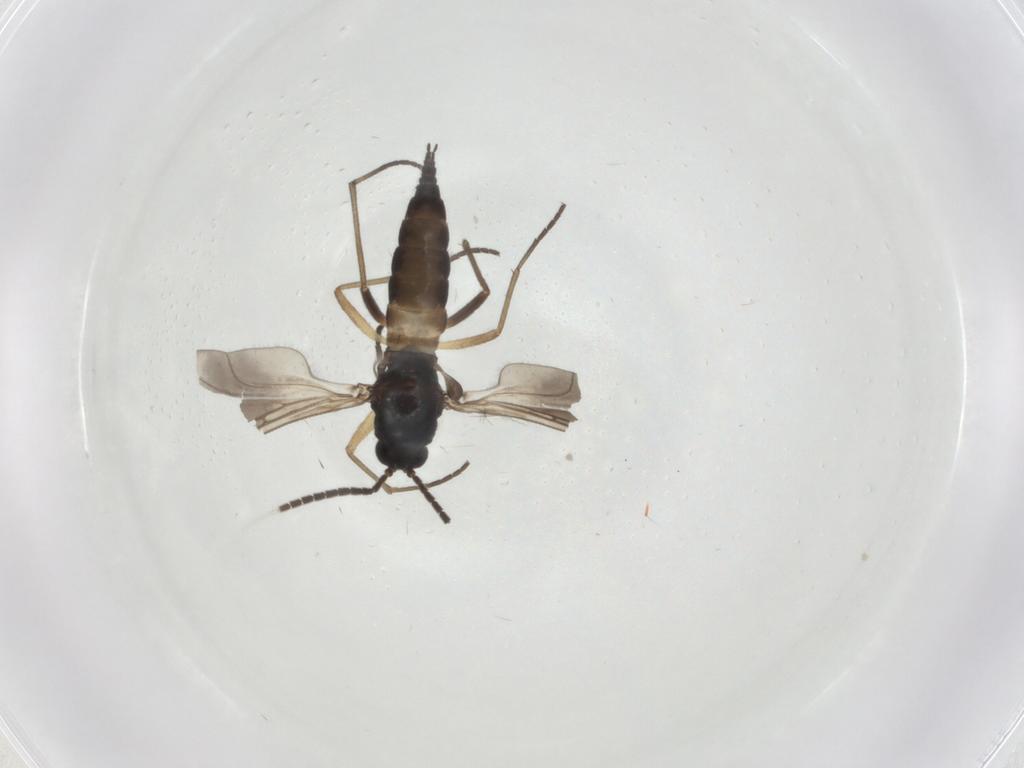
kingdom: Animalia
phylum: Arthropoda
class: Insecta
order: Diptera
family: Sciaridae
